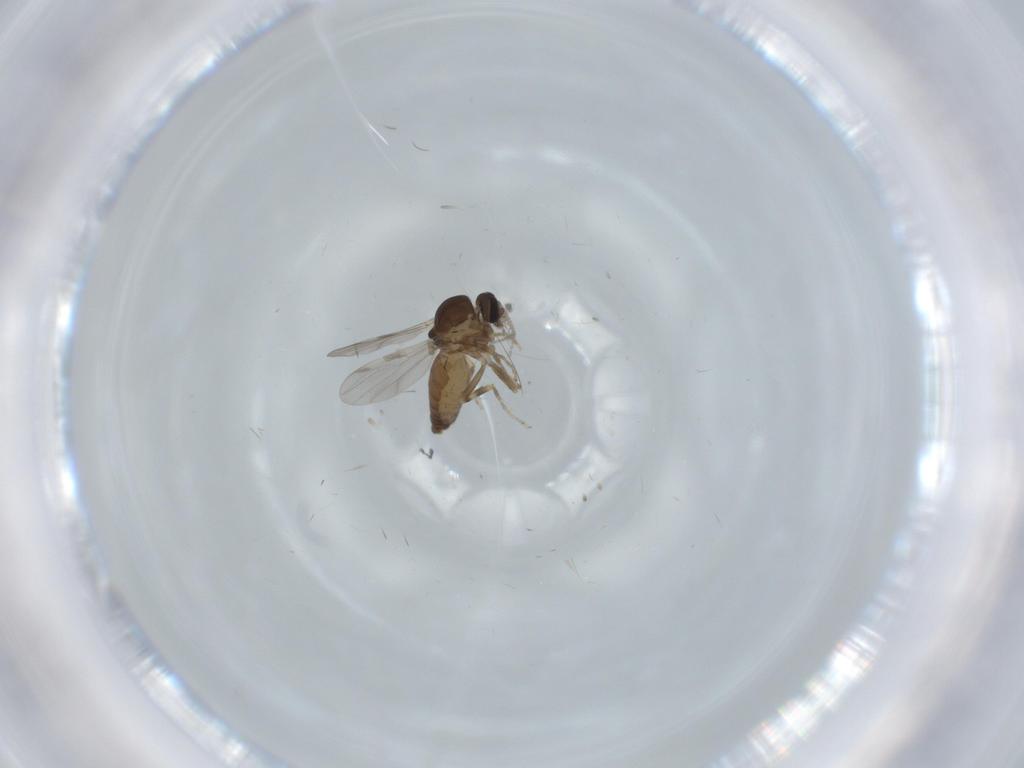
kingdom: Animalia
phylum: Arthropoda
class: Insecta
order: Diptera
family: Ceratopogonidae
